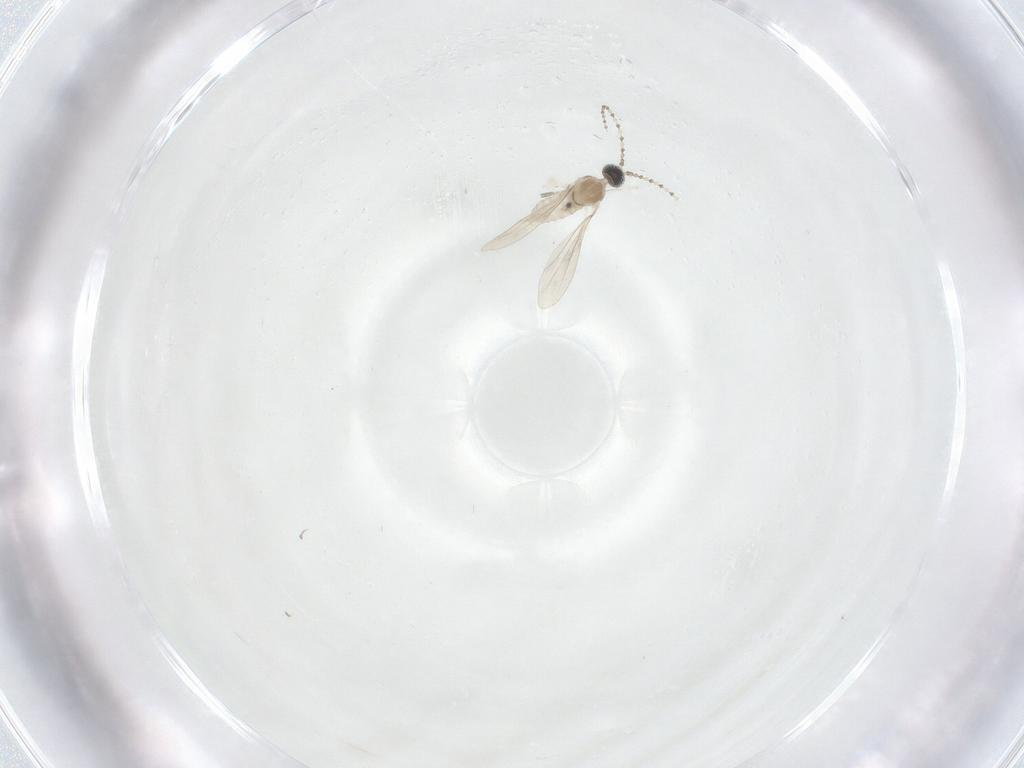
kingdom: Animalia
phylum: Arthropoda
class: Insecta
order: Diptera
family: Cecidomyiidae
